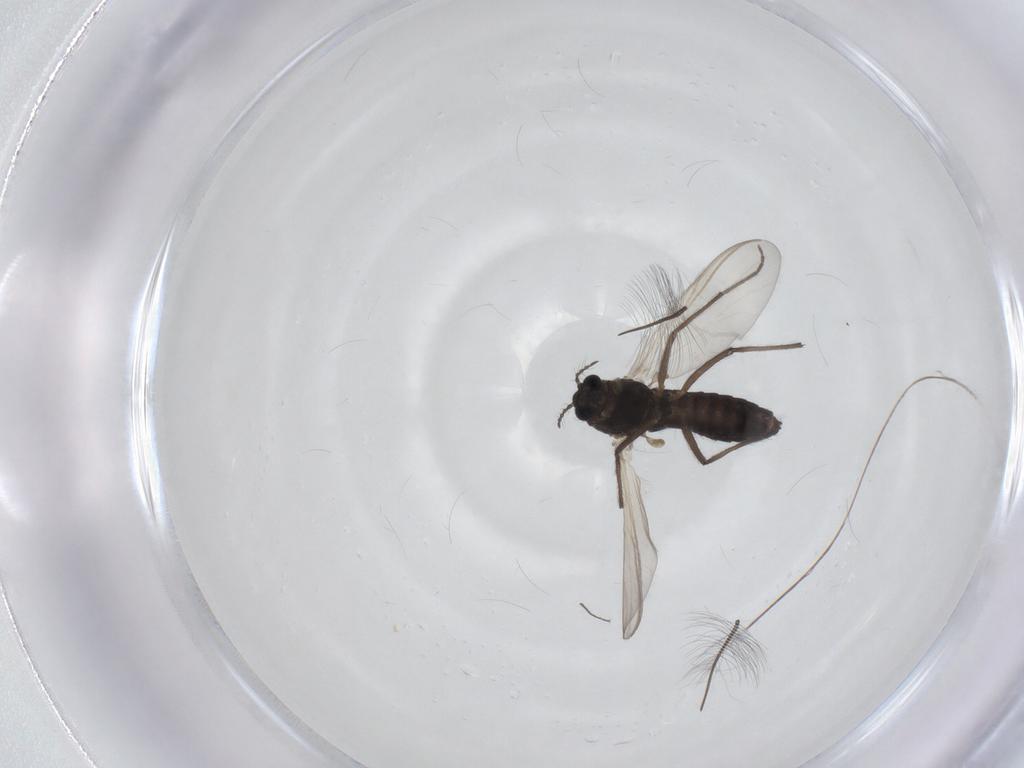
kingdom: Animalia
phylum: Arthropoda
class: Insecta
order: Diptera
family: Chironomidae
